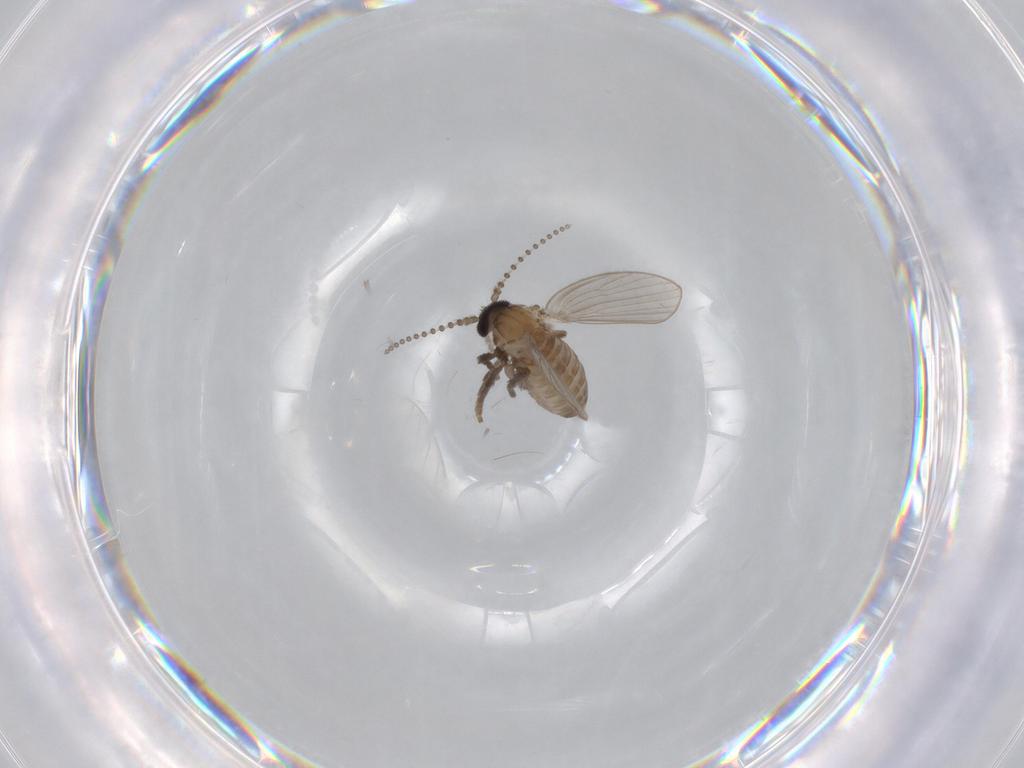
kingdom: Animalia
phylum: Arthropoda
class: Insecta
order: Diptera
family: Psychodidae
